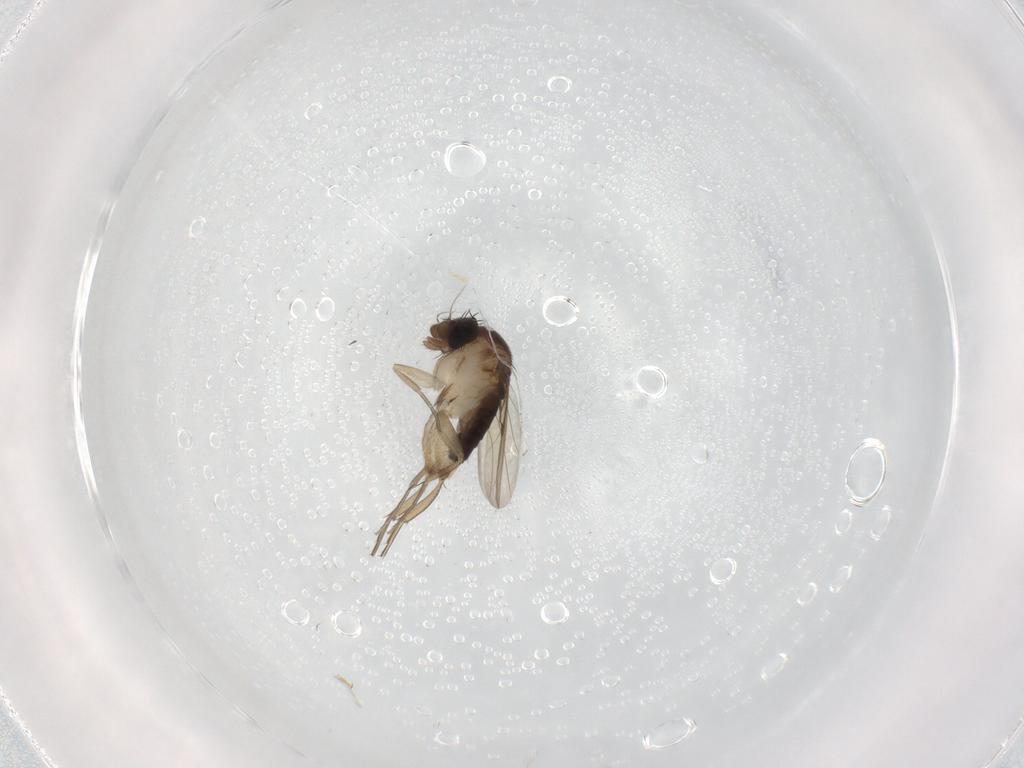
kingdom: Animalia
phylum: Arthropoda
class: Insecta
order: Diptera
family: Phoridae
